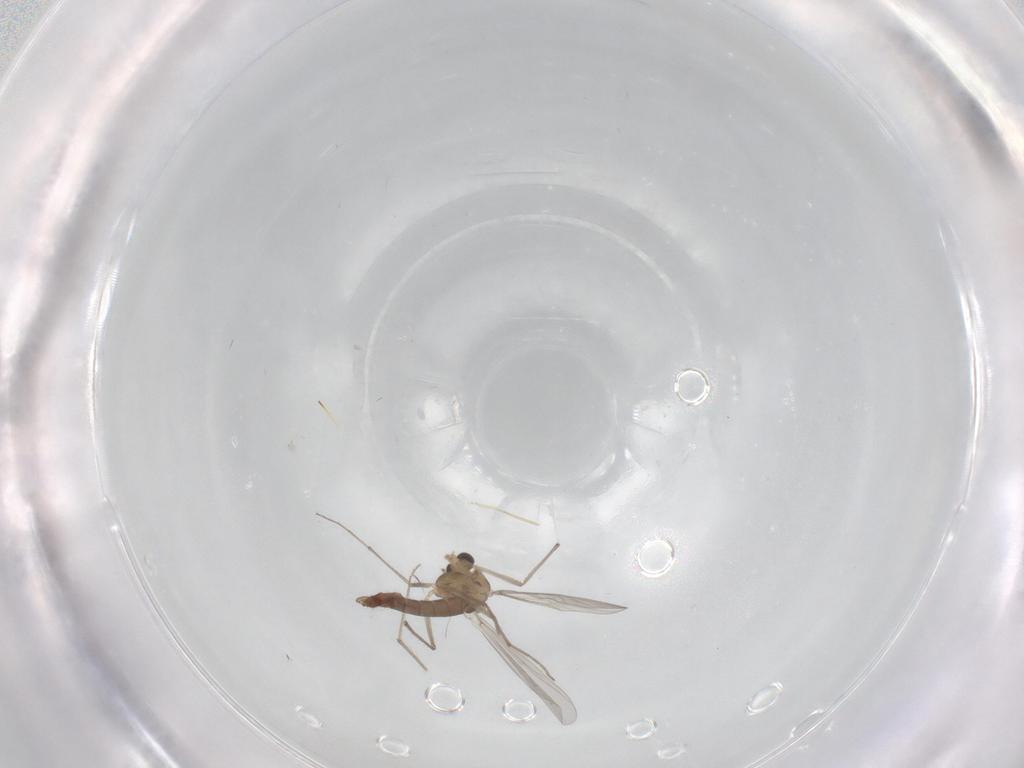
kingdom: Animalia
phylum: Arthropoda
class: Insecta
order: Diptera
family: Chironomidae
